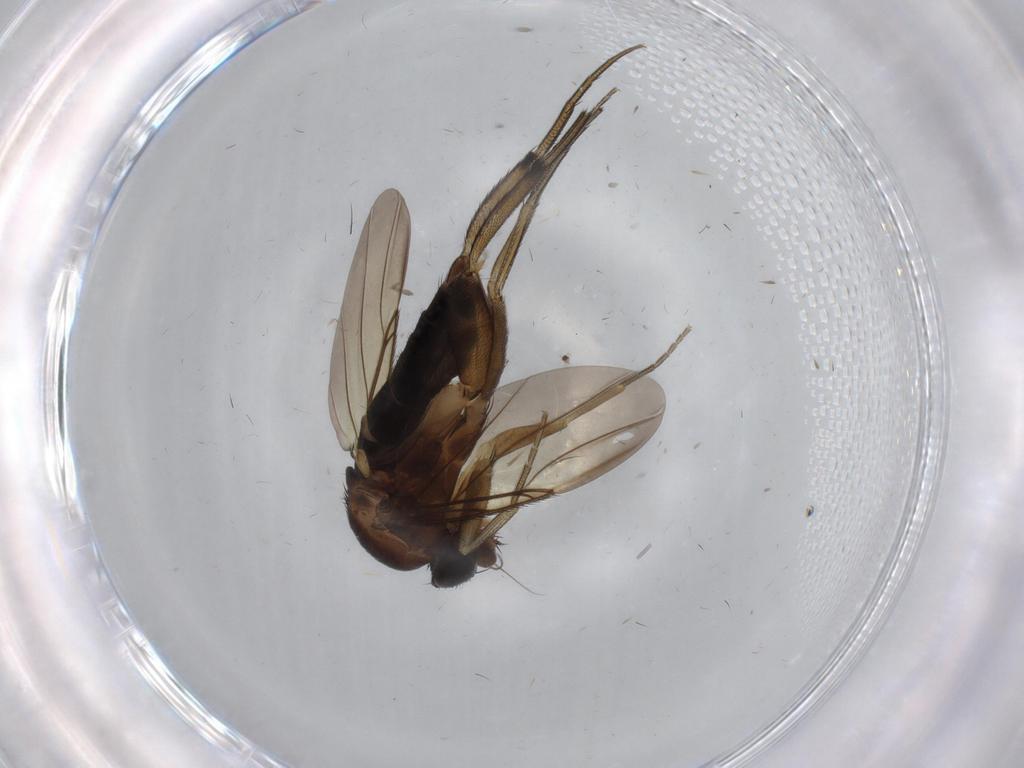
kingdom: Animalia
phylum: Arthropoda
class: Insecta
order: Diptera
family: Phoridae
